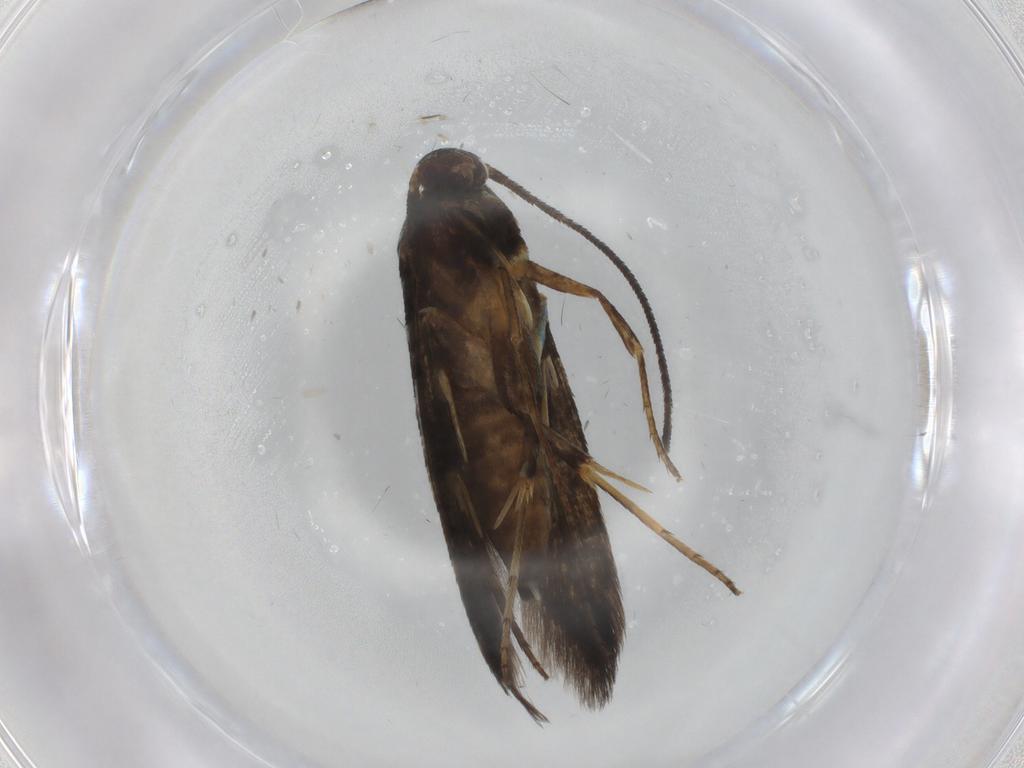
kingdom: Animalia
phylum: Arthropoda
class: Insecta
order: Lepidoptera
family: Heliodinidae
